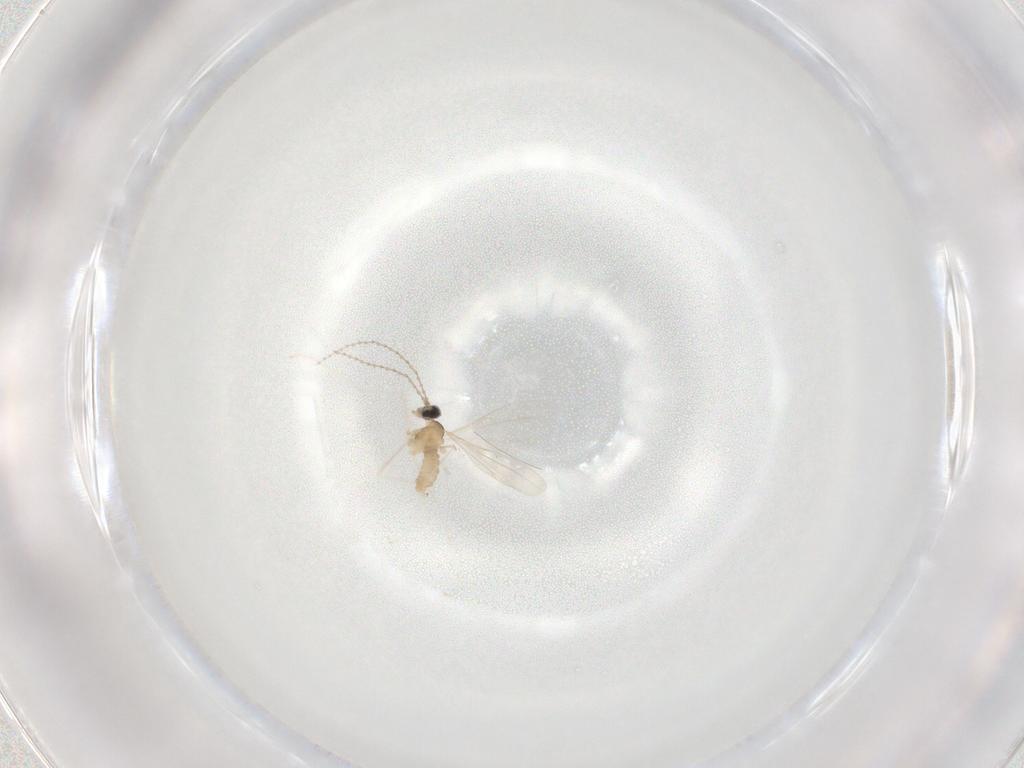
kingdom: Animalia
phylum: Arthropoda
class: Insecta
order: Diptera
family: Cecidomyiidae
